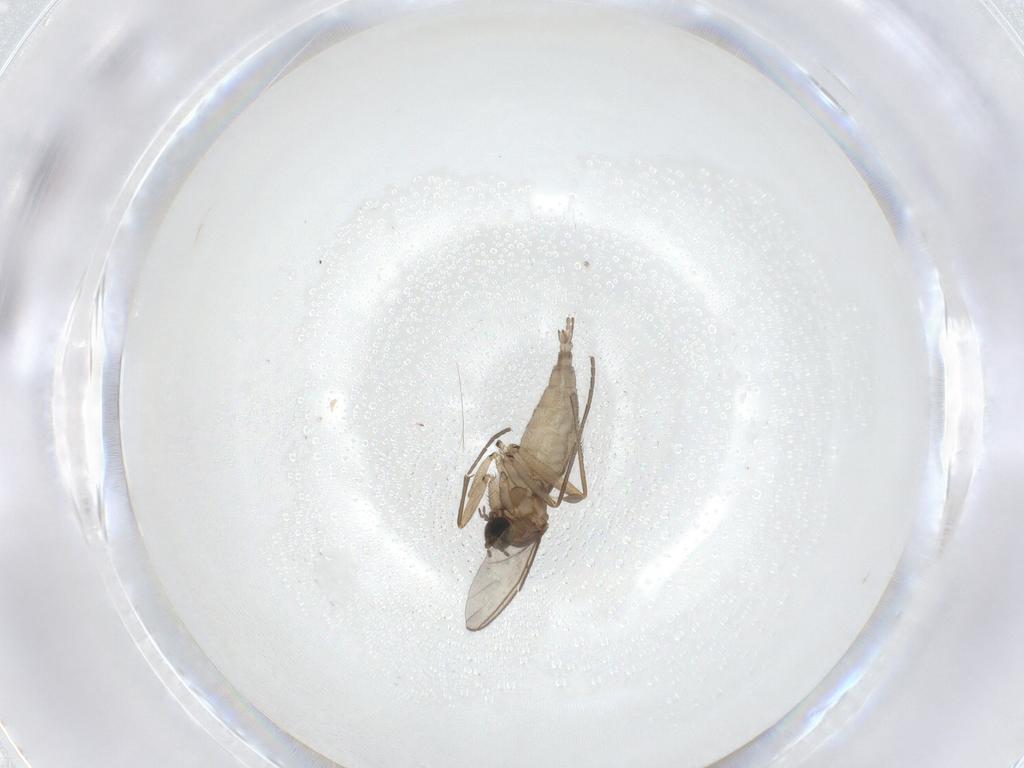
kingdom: Animalia
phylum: Arthropoda
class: Insecta
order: Diptera
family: Sciaridae
